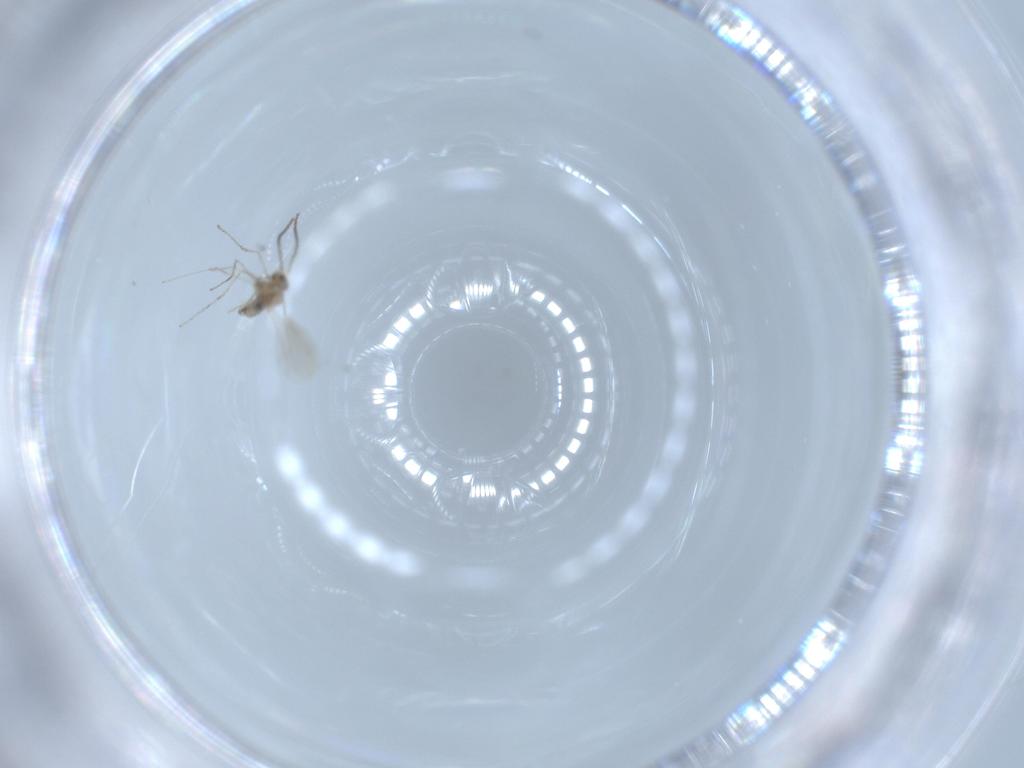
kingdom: Animalia
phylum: Arthropoda
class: Insecta
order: Diptera
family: Cecidomyiidae
